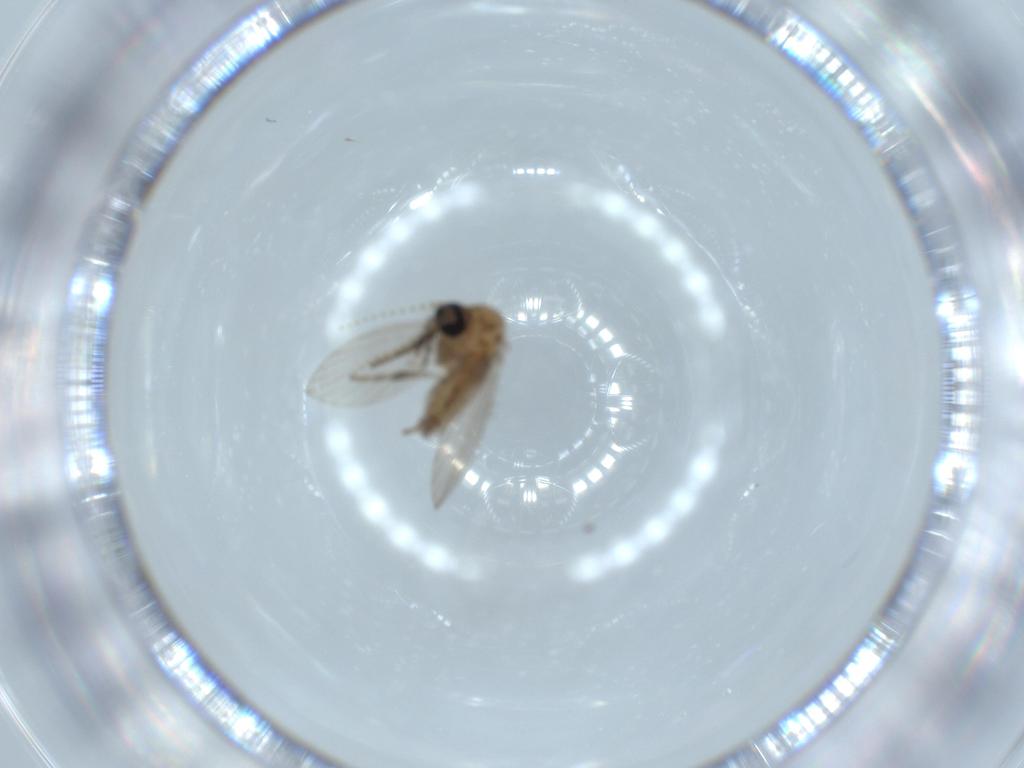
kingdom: Animalia
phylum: Arthropoda
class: Insecta
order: Diptera
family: Psychodidae
